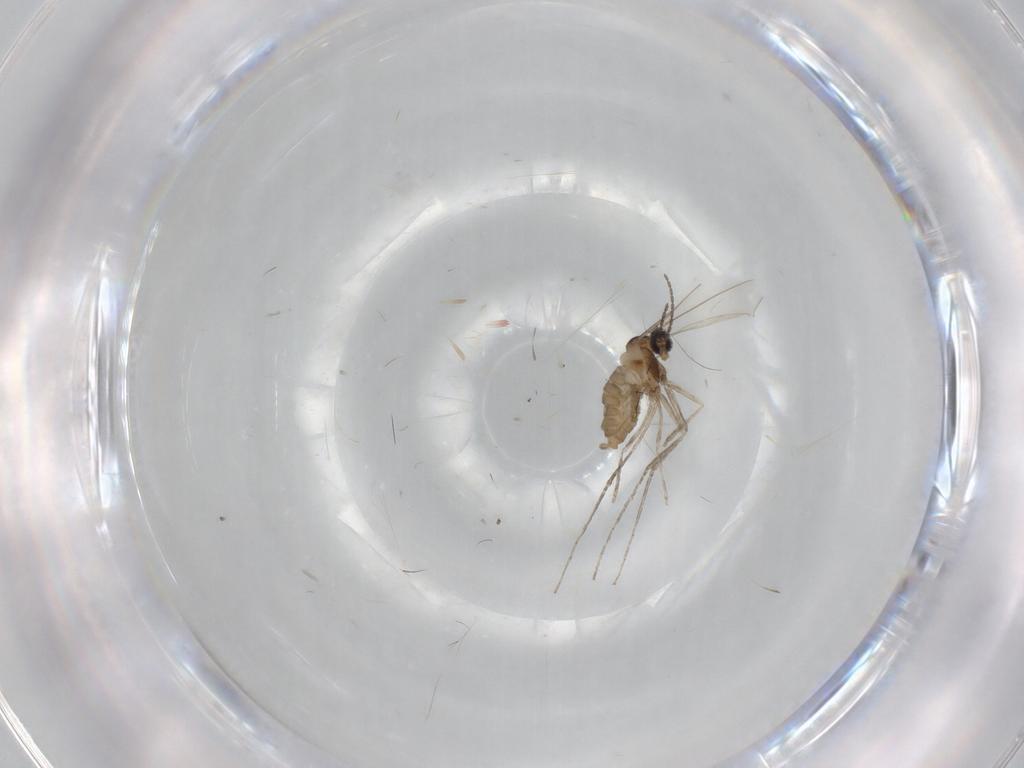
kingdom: Animalia
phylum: Arthropoda
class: Insecta
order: Diptera
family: Cecidomyiidae
